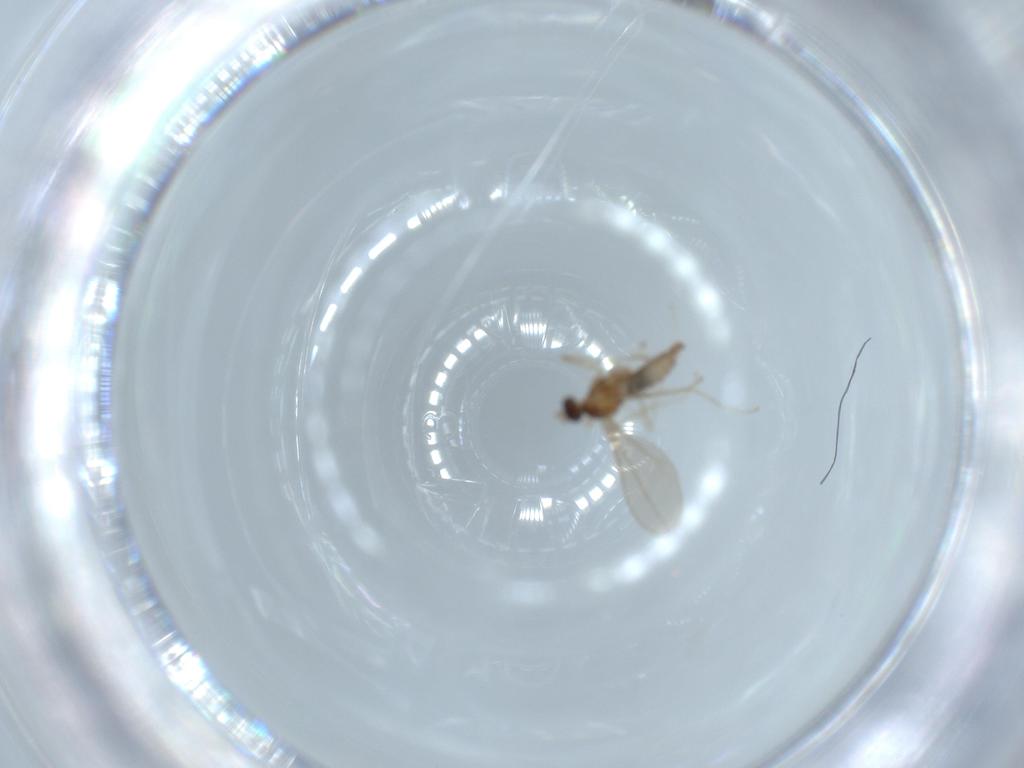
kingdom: Animalia
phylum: Arthropoda
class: Insecta
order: Diptera
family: Cecidomyiidae
